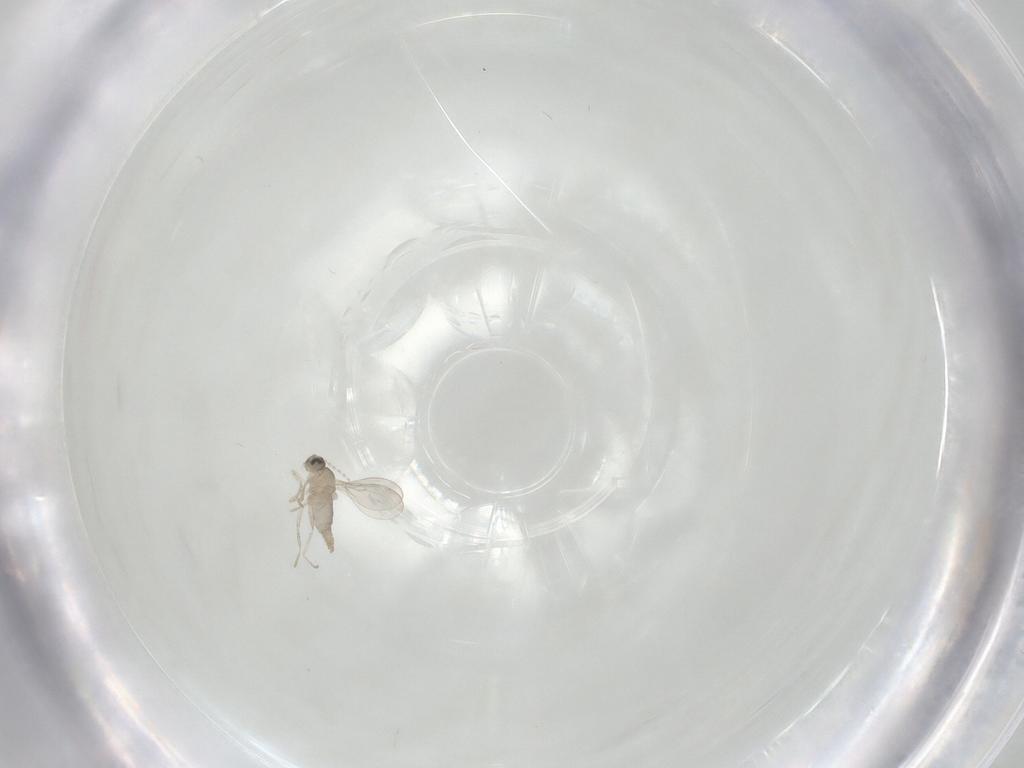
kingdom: Animalia
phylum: Arthropoda
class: Insecta
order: Diptera
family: Cecidomyiidae
